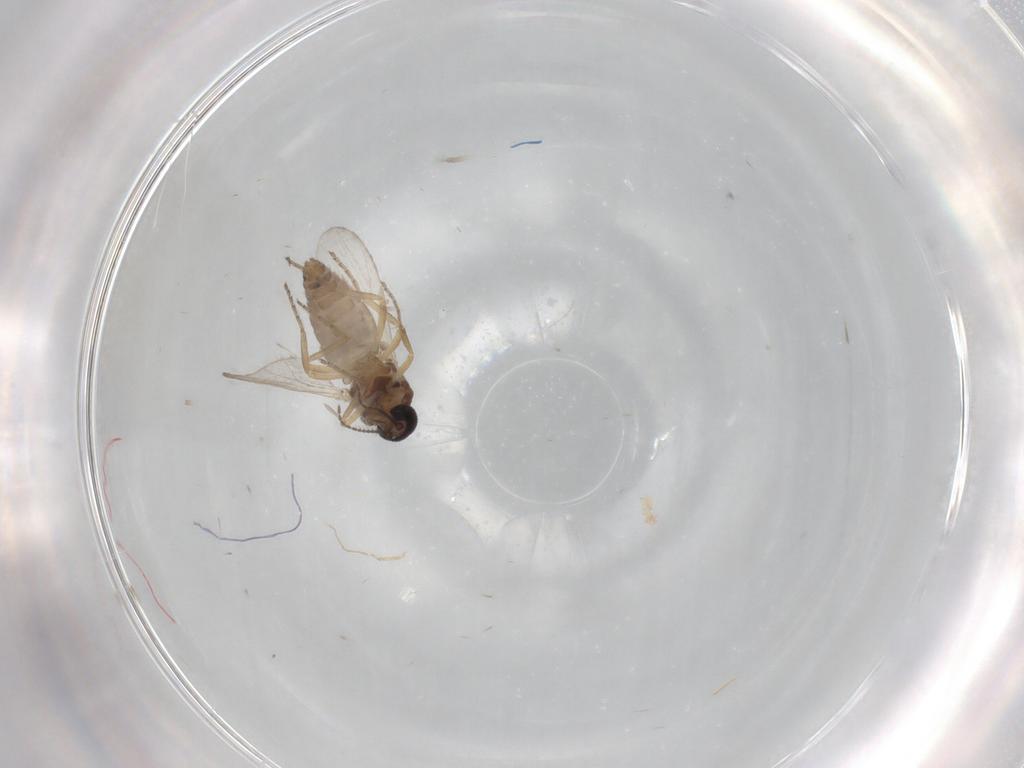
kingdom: Animalia
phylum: Arthropoda
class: Insecta
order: Diptera
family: Ceratopogonidae
